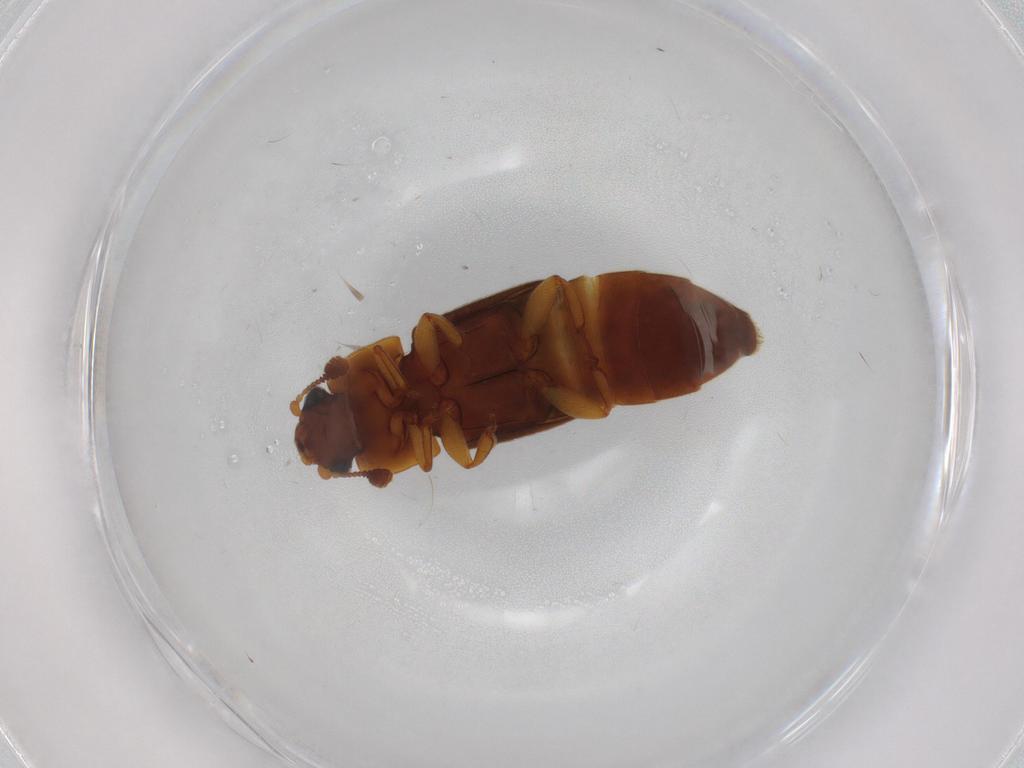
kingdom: Animalia
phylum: Arthropoda
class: Insecta
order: Coleoptera
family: Nitidulidae
